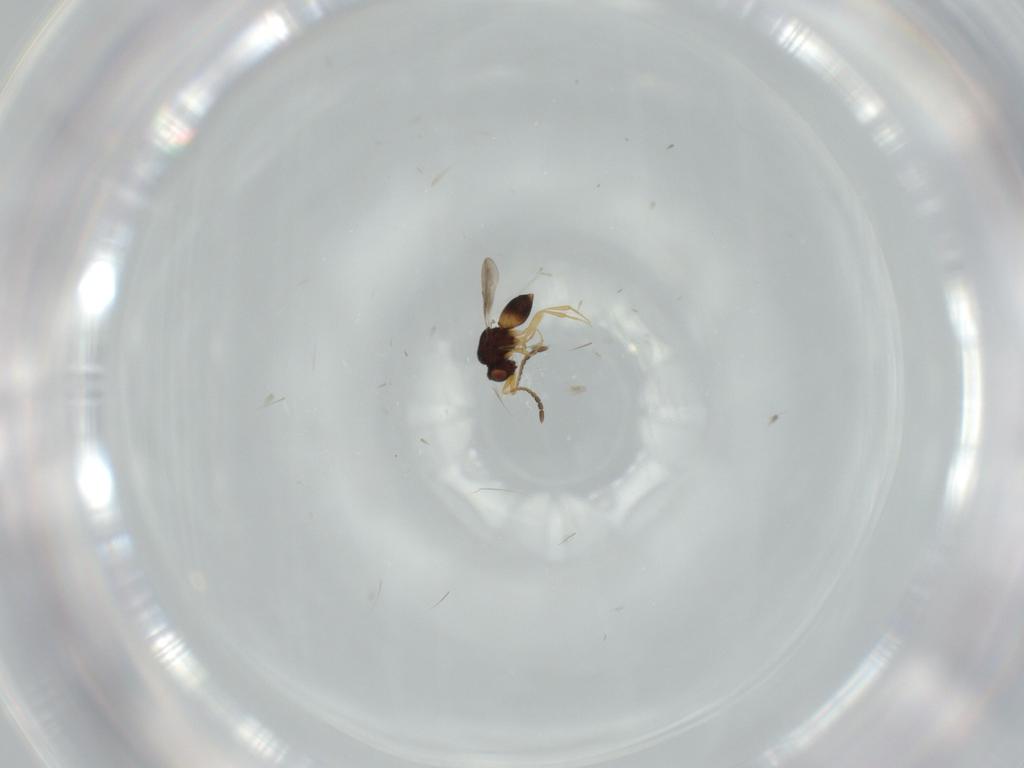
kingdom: Animalia
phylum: Arthropoda
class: Insecta
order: Hymenoptera
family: Ceraphronidae
